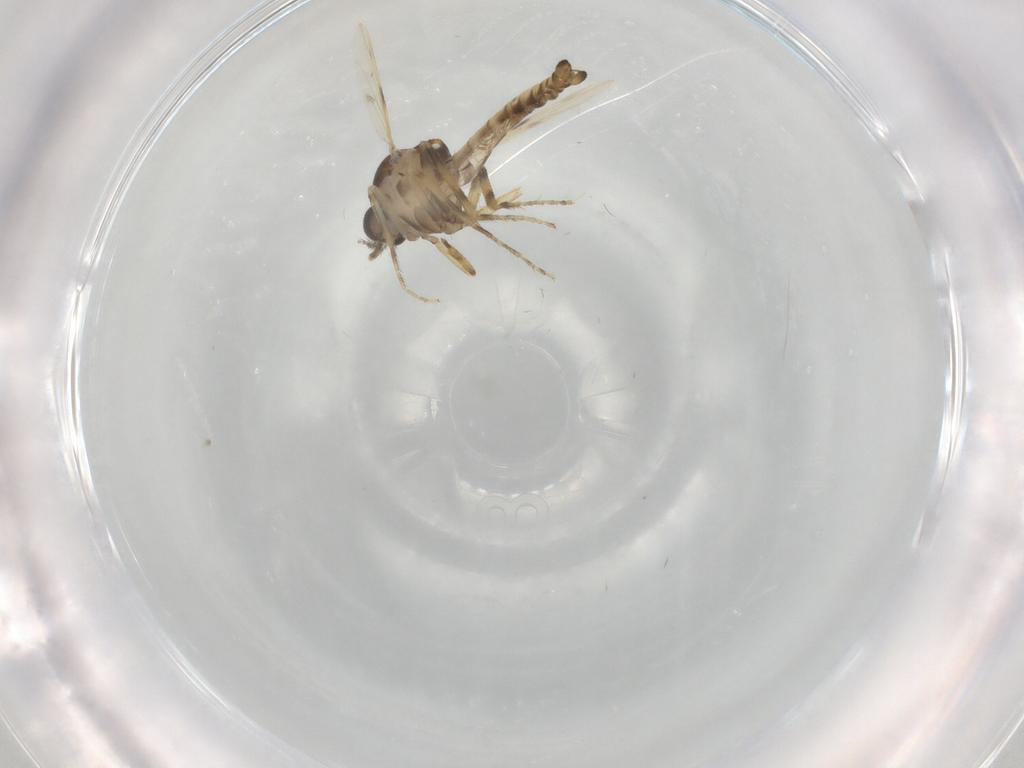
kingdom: Animalia
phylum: Arthropoda
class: Insecta
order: Diptera
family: Ceratopogonidae
